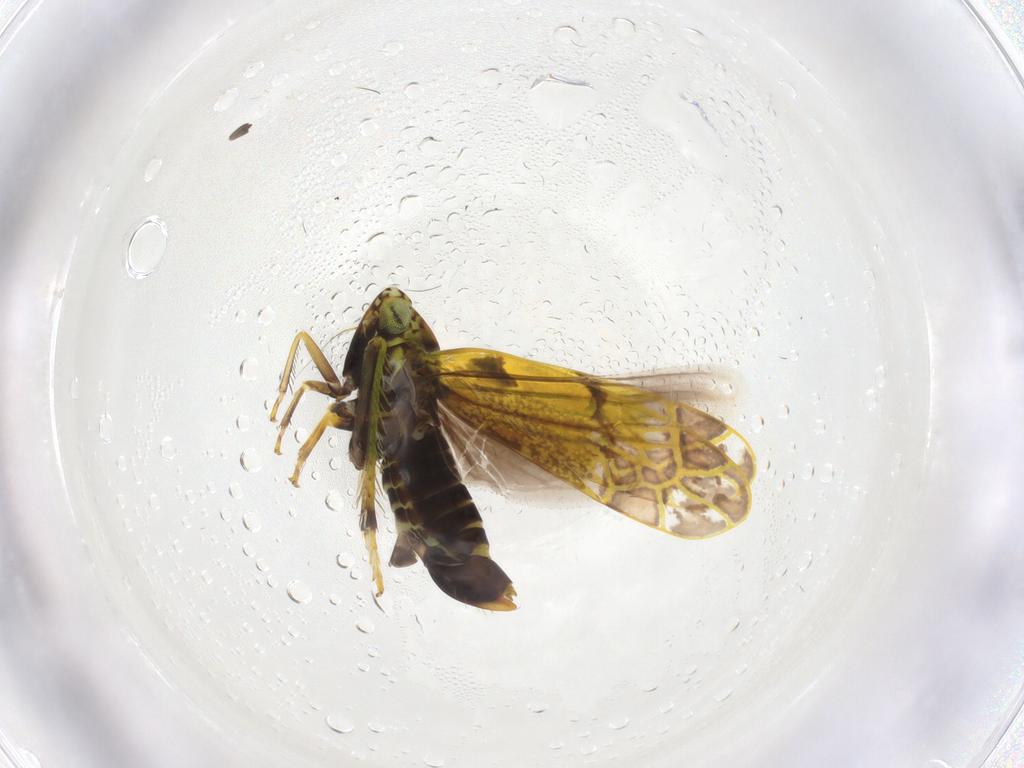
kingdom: Animalia
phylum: Arthropoda
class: Insecta
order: Hemiptera
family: Cicadellidae
